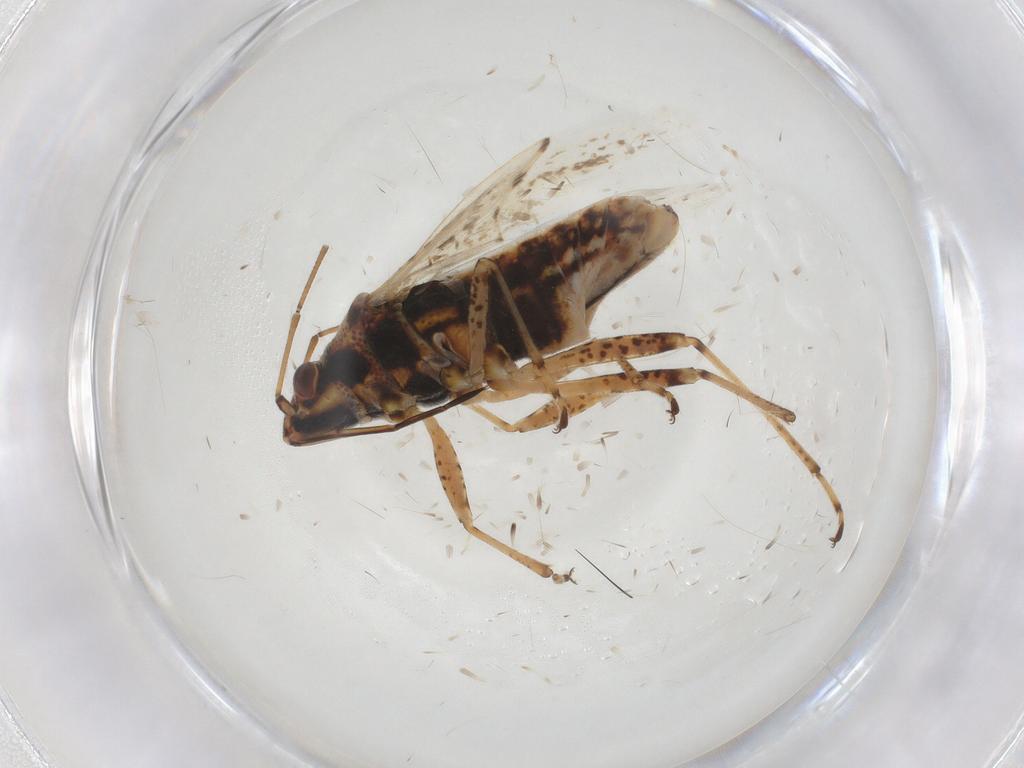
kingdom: Animalia
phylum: Arthropoda
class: Insecta
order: Hemiptera
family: Lygaeidae
